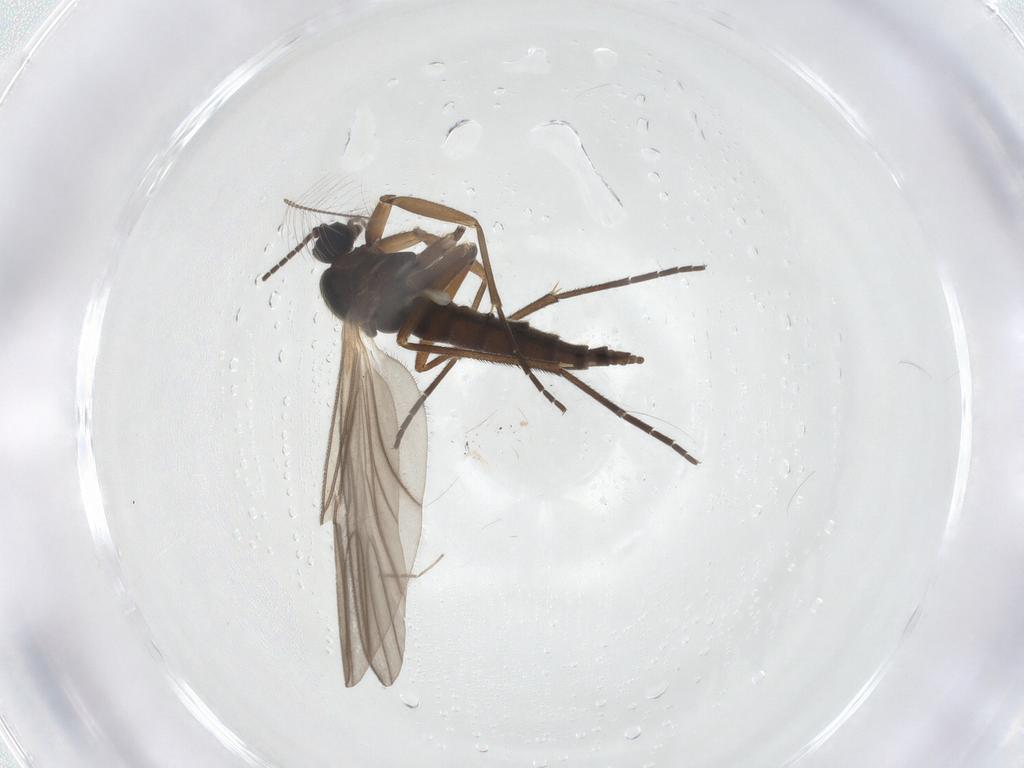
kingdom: Animalia
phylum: Arthropoda
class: Insecta
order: Diptera
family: Sciaridae
